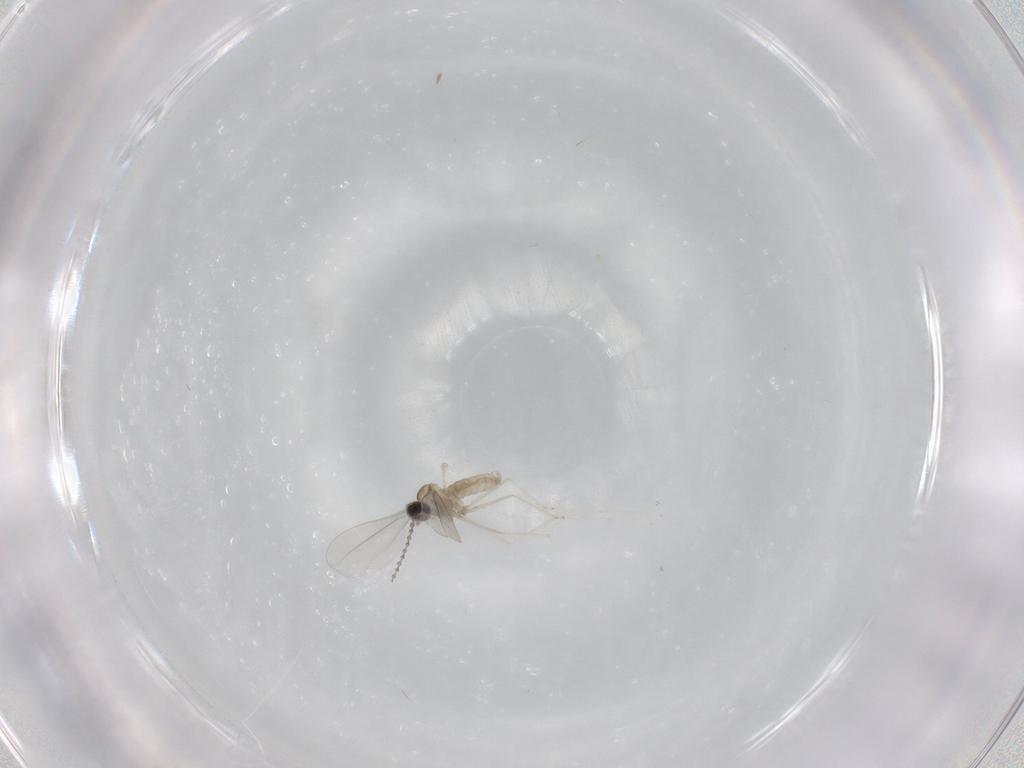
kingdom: Animalia
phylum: Arthropoda
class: Insecta
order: Diptera
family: Cecidomyiidae
